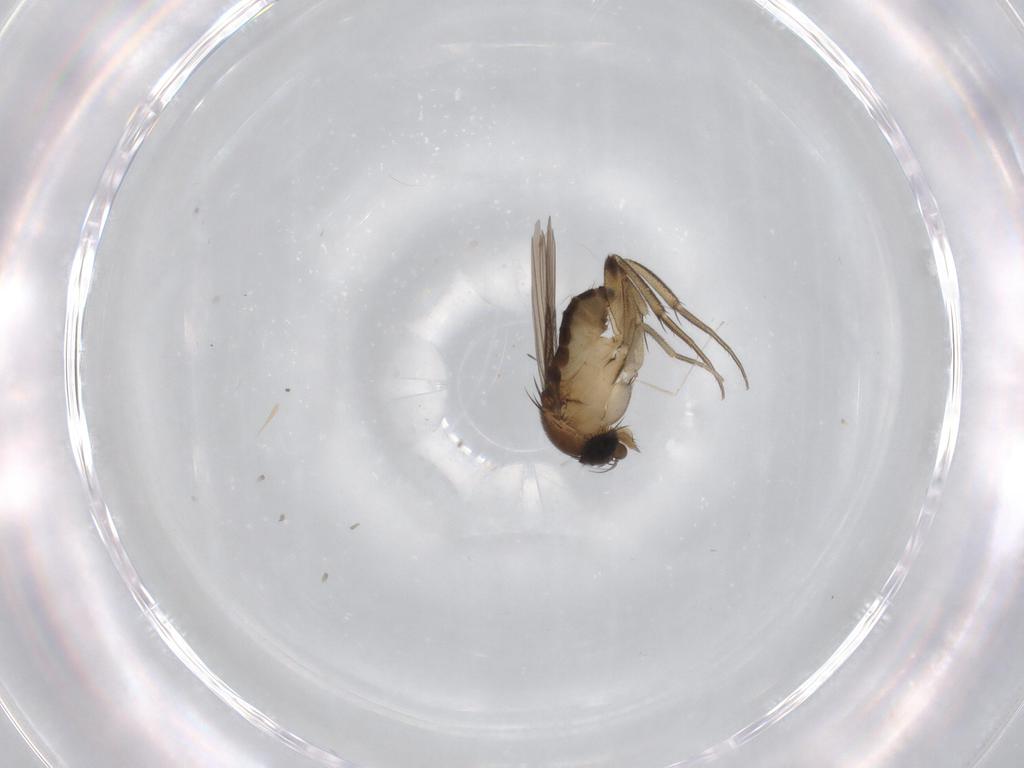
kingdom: Animalia
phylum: Arthropoda
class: Insecta
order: Diptera
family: Phoridae
